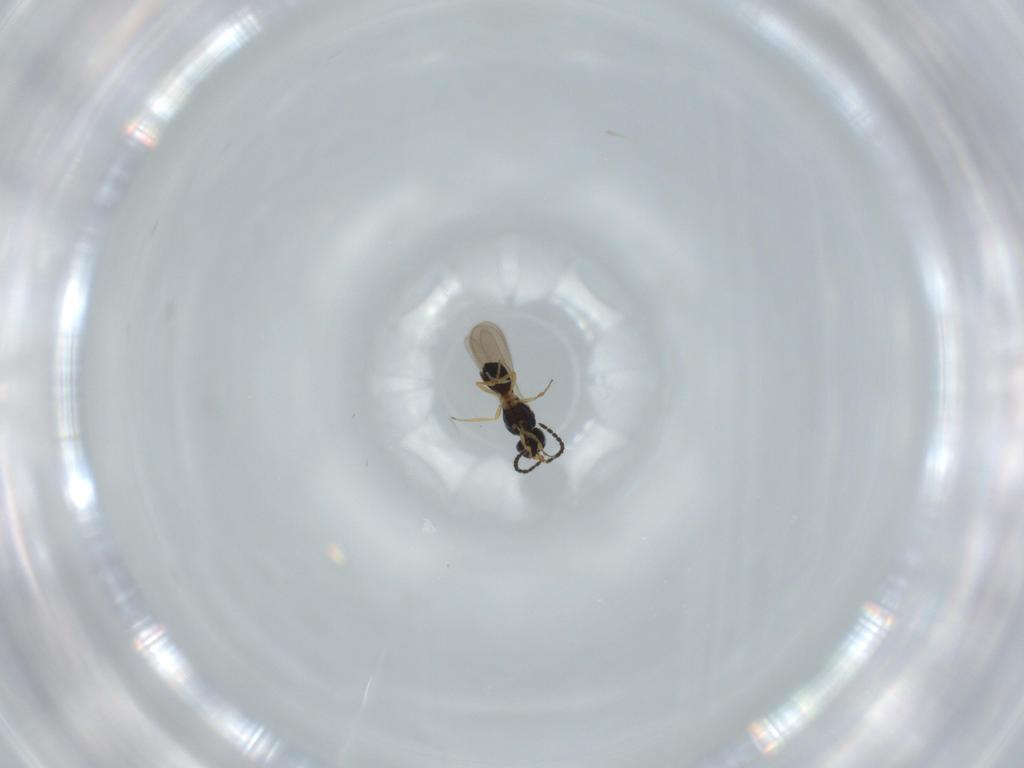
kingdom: Animalia
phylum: Arthropoda
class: Insecta
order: Hymenoptera
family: Scelionidae
